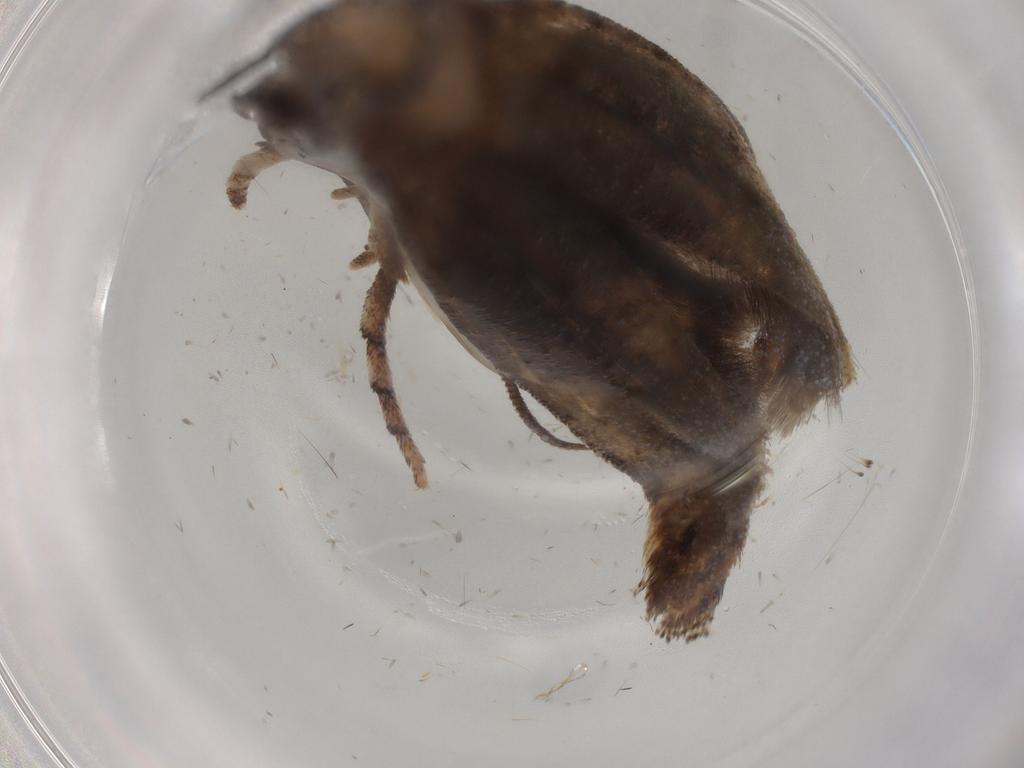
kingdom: Animalia
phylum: Arthropoda
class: Insecta
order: Lepidoptera
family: Yponomeutidae
